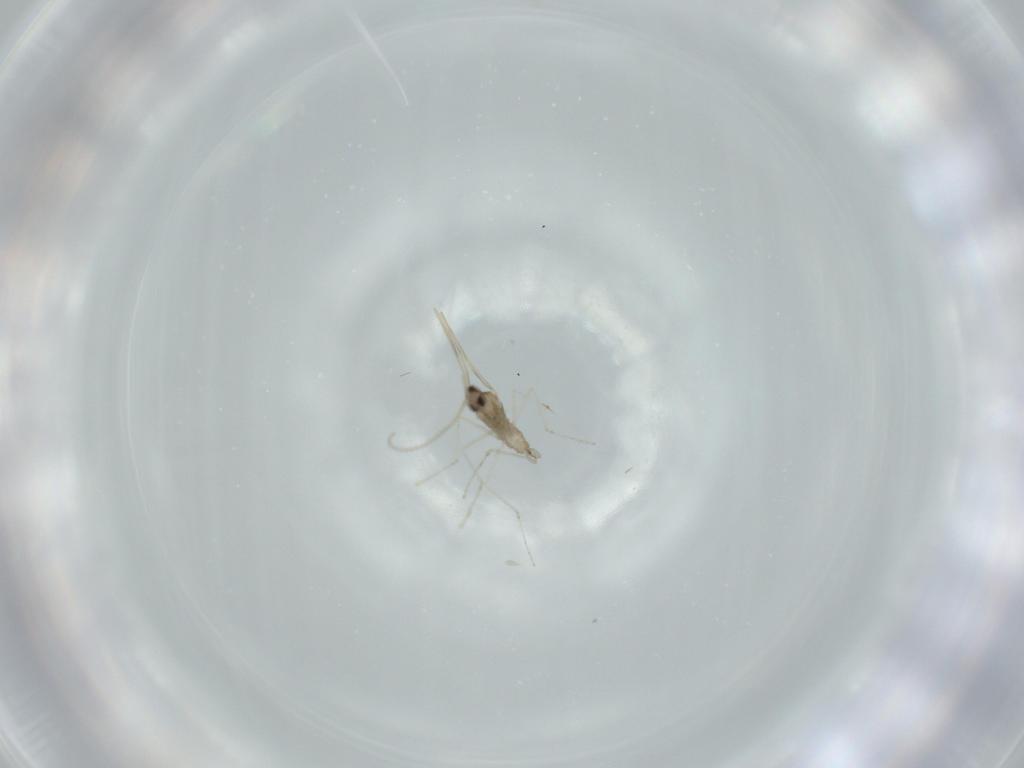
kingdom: Animalia
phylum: Arthropoda
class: Insecta
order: Diptera
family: Cecidomyiidae
